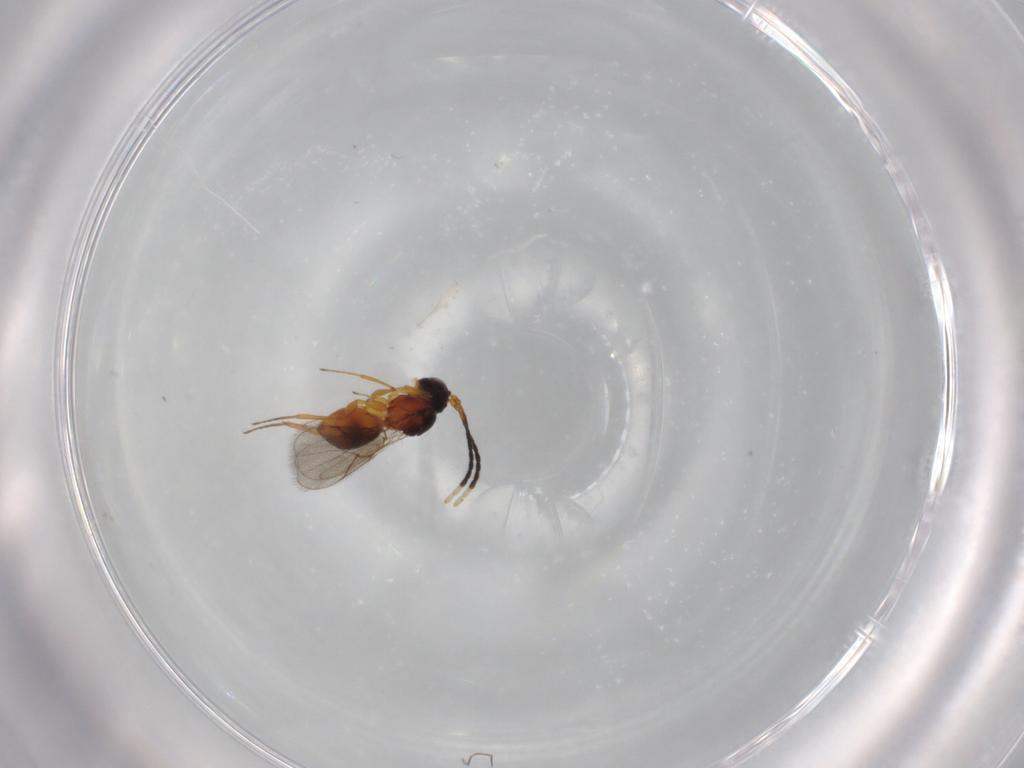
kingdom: Animalia
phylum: Arthropoda
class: Insecta
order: Hymenoptera
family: Figitidae
